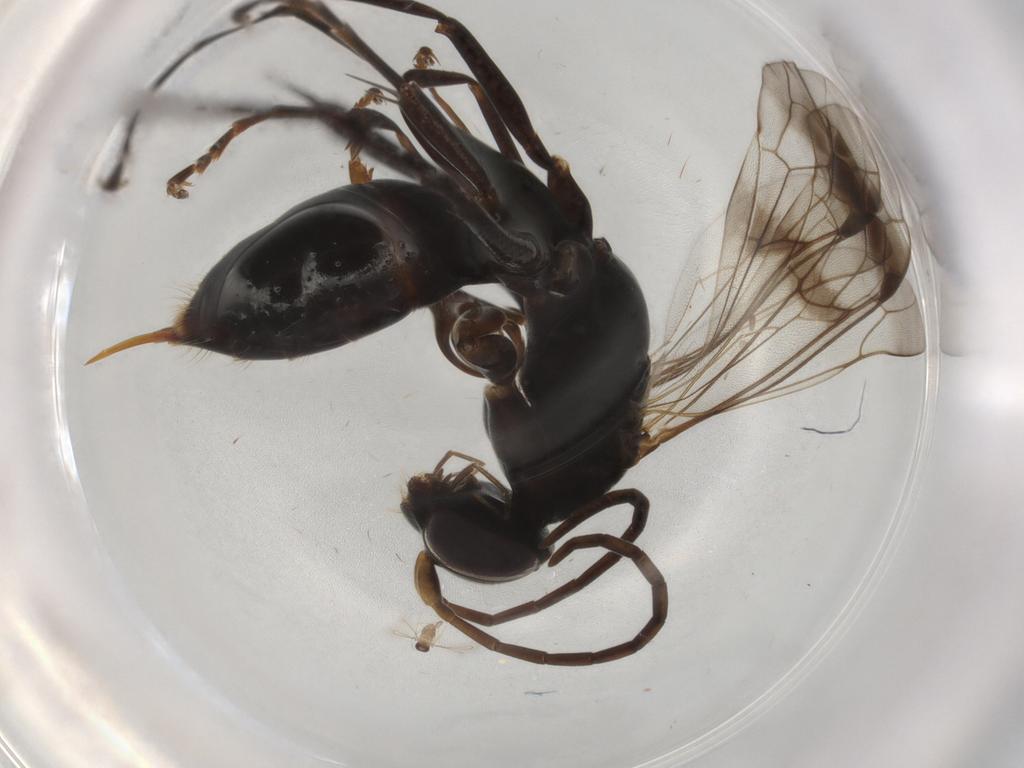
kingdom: Animalia
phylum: Arthropoda
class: Insecta
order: Hymenoptera
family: Pompilidae
